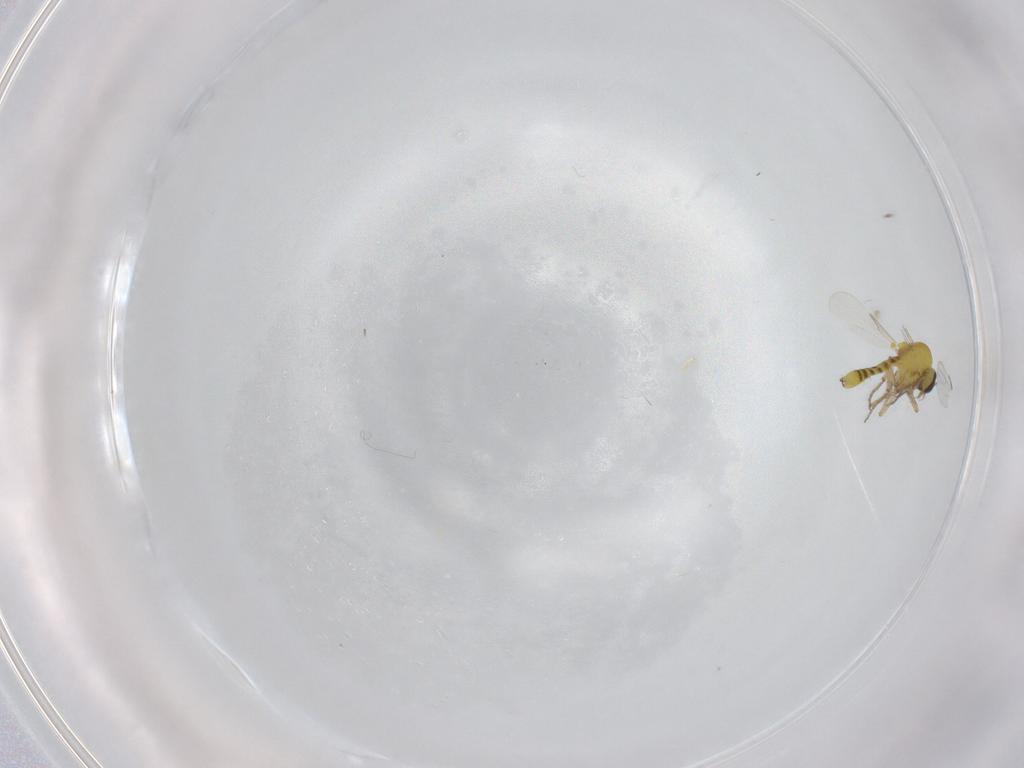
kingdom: Animalia
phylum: Arthropoda
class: Insecta
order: Diptera
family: Ceratopogonidae
